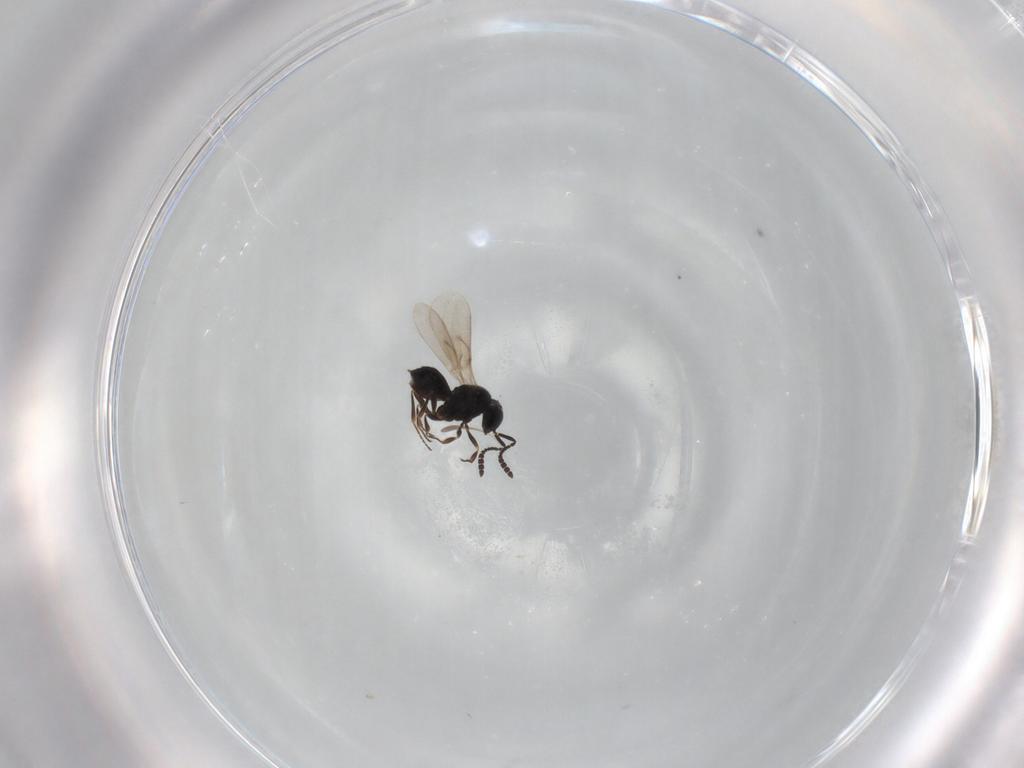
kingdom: Animalia
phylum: Arthropoda
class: Insecta
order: Hymenoptera
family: Scelionidae
